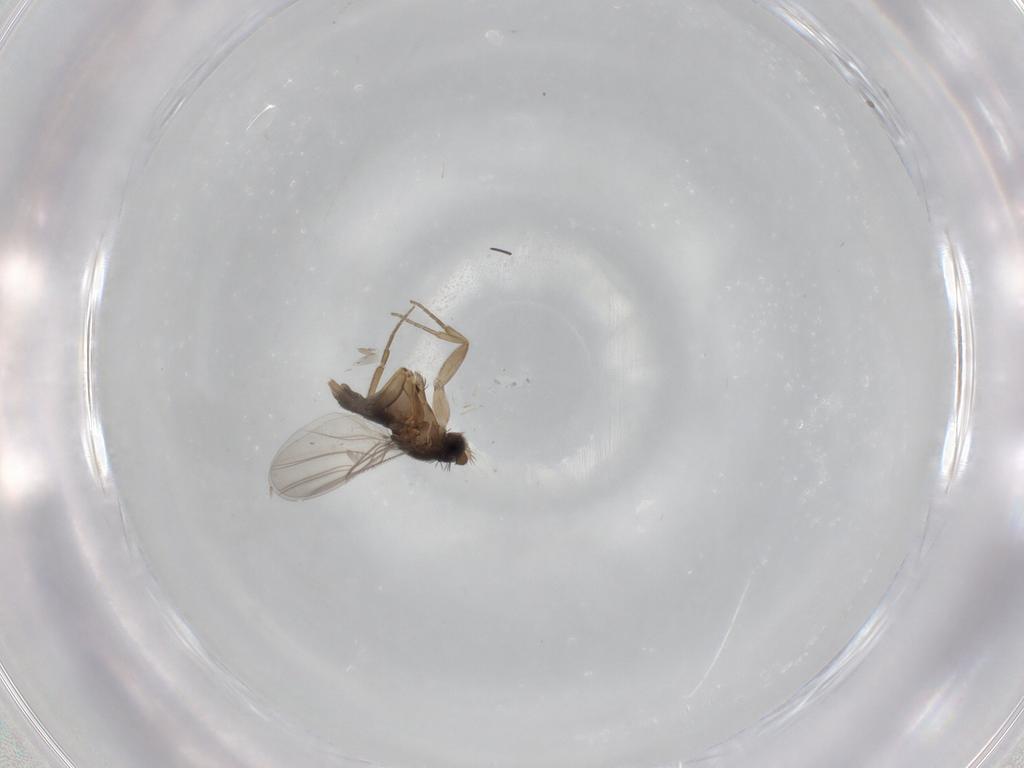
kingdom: Animalia
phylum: Arthropoda
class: Insecta
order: Diptera
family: Phoridae
